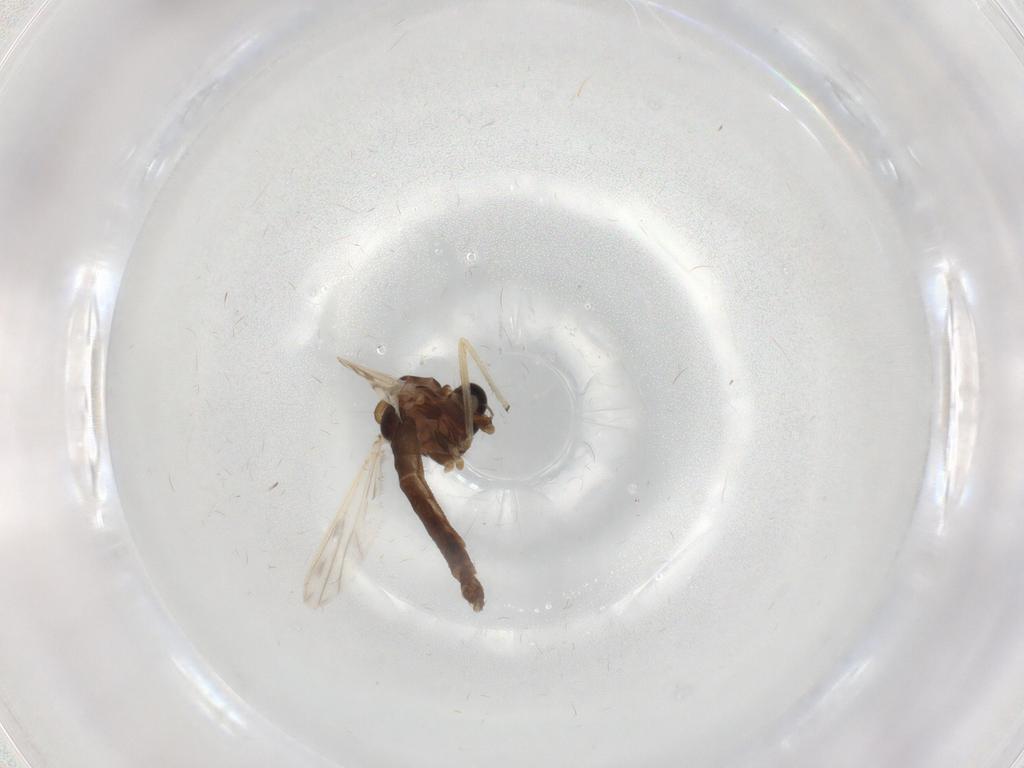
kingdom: Animalia
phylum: Arthropoda
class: Insecta
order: Diptera
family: Chironomidae
